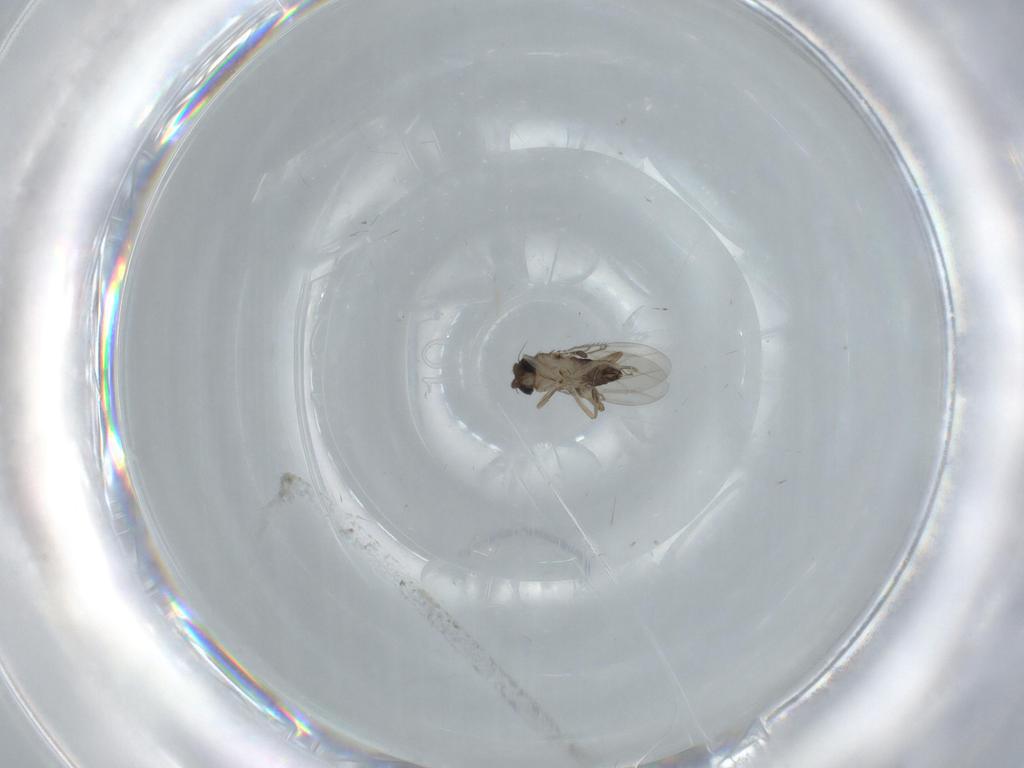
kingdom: Animalia
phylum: Arthropoda
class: Insecta
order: Diptera
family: Phoridae
